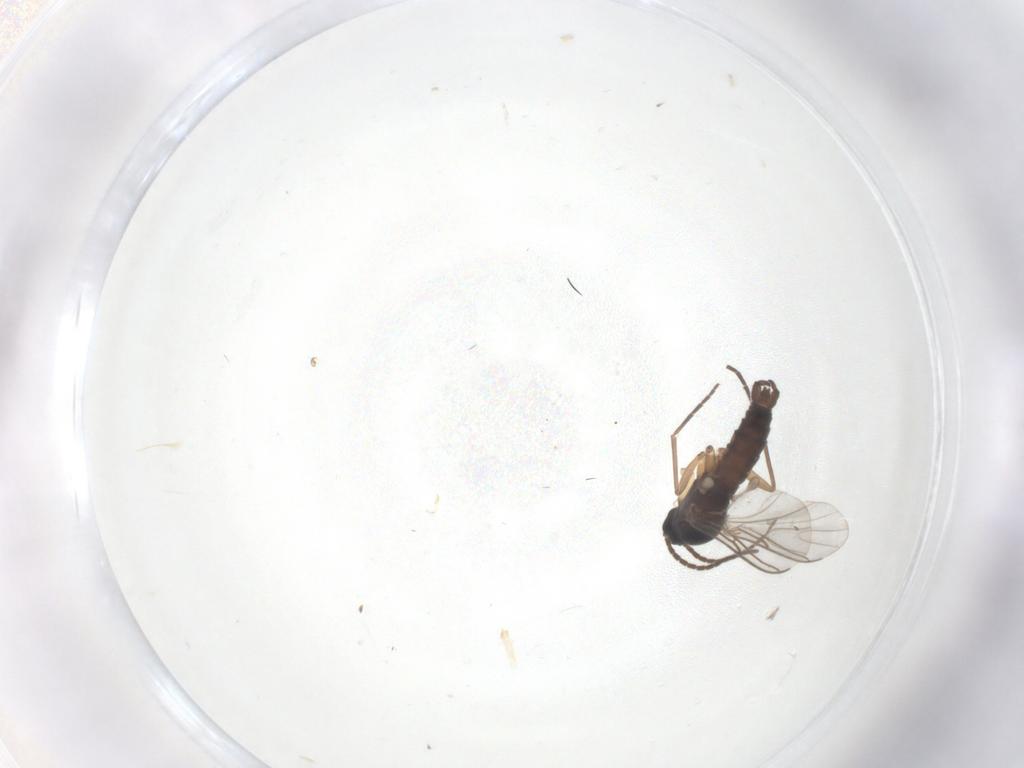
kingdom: Animalia
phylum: Arthropoda
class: Insecta
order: Diptera
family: Sciaridae
